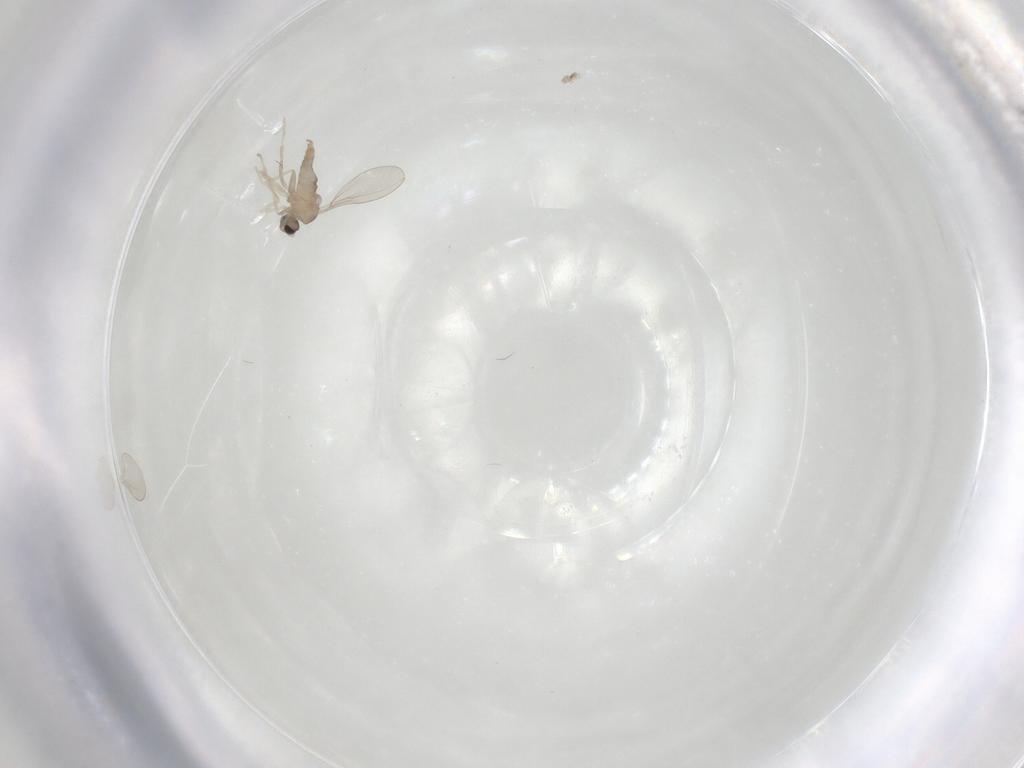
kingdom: Animalia
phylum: Arthropoda
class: Insecta
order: Diptera
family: Cecidomyiidae
